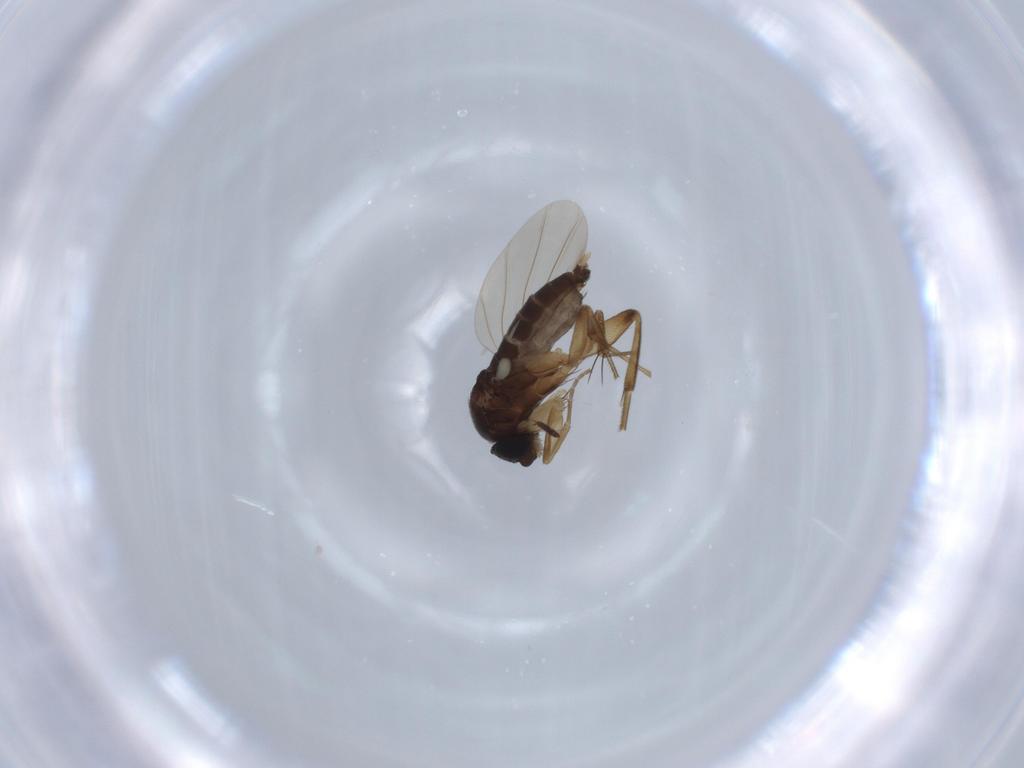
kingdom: Animalia
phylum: Arthropoda
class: Insecta
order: Diptera
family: Phoridae
